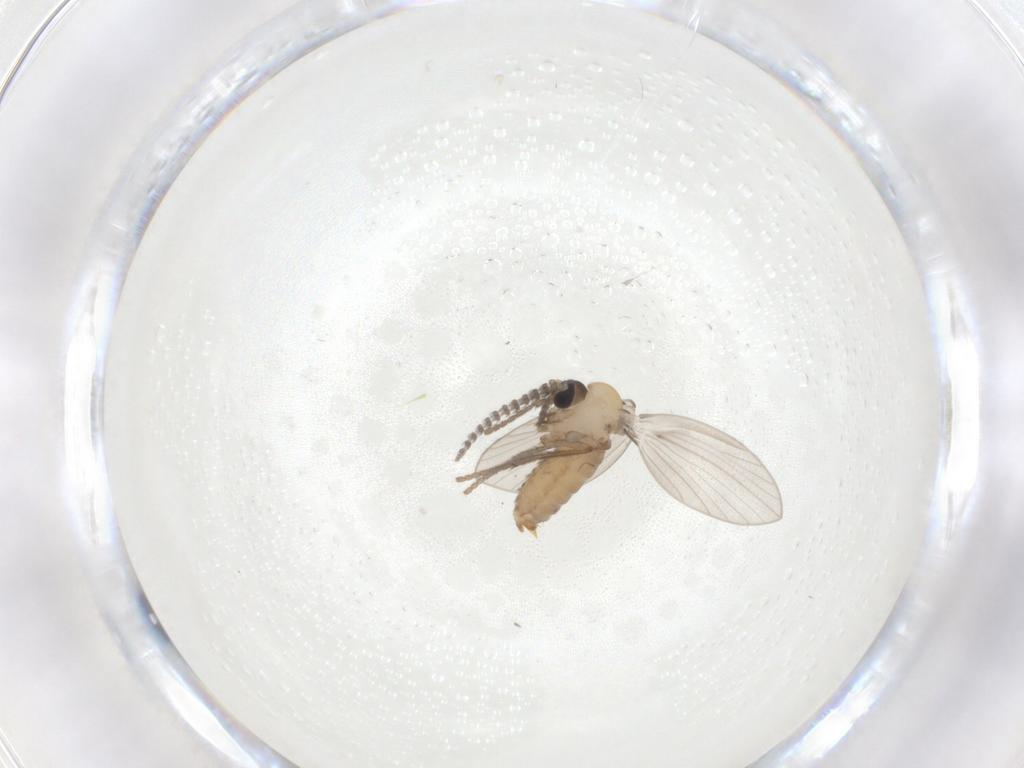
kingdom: Animalia
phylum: Arthropoda
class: Insecta
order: Diptera
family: Psychodidae
